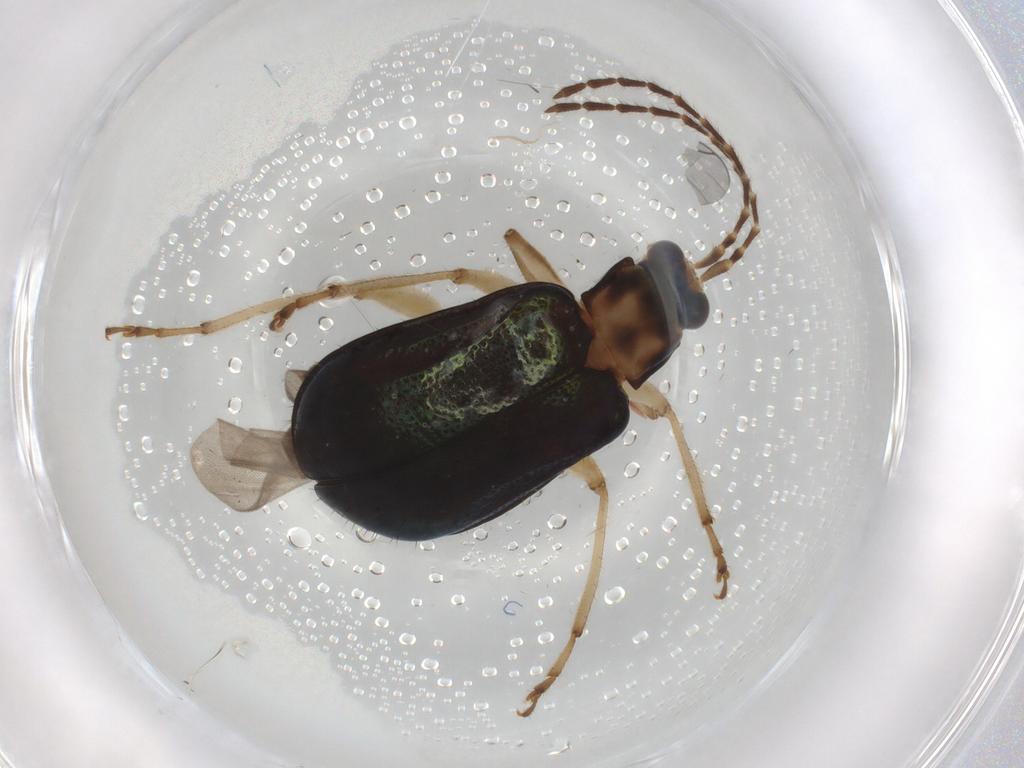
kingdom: Animalia
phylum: Arthropoda
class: Insecta
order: Coleoptera
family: Chrysomelidae
